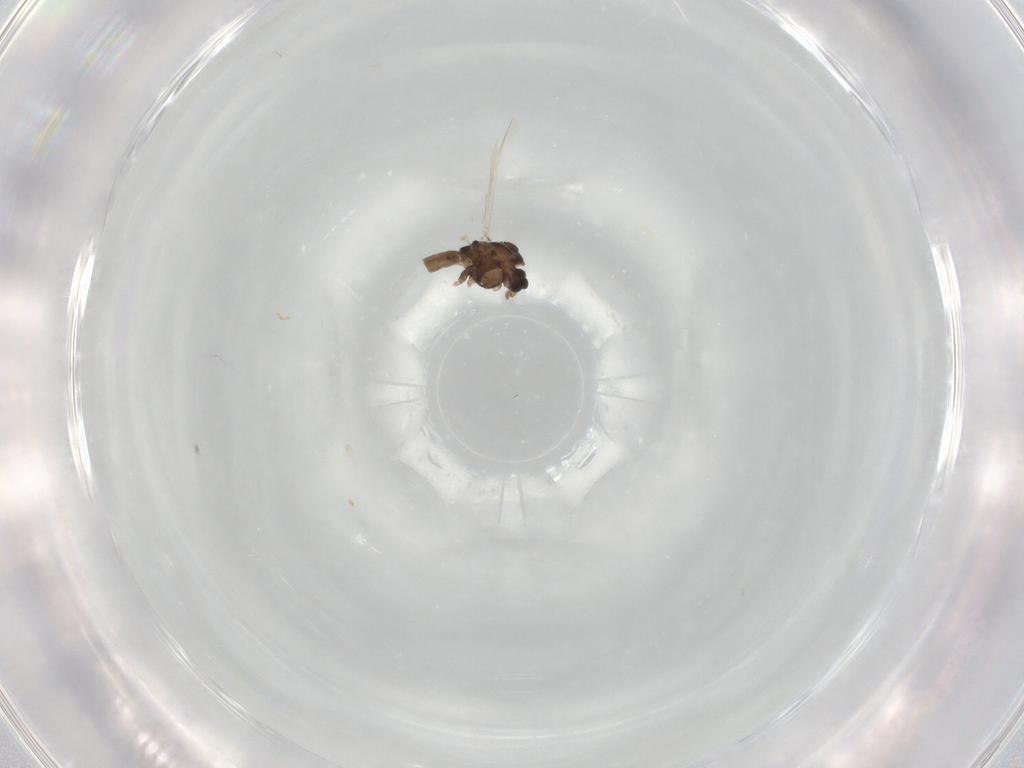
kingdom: Animalia
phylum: Arthropoda
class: Insecta
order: Diptera
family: Chironomidae
